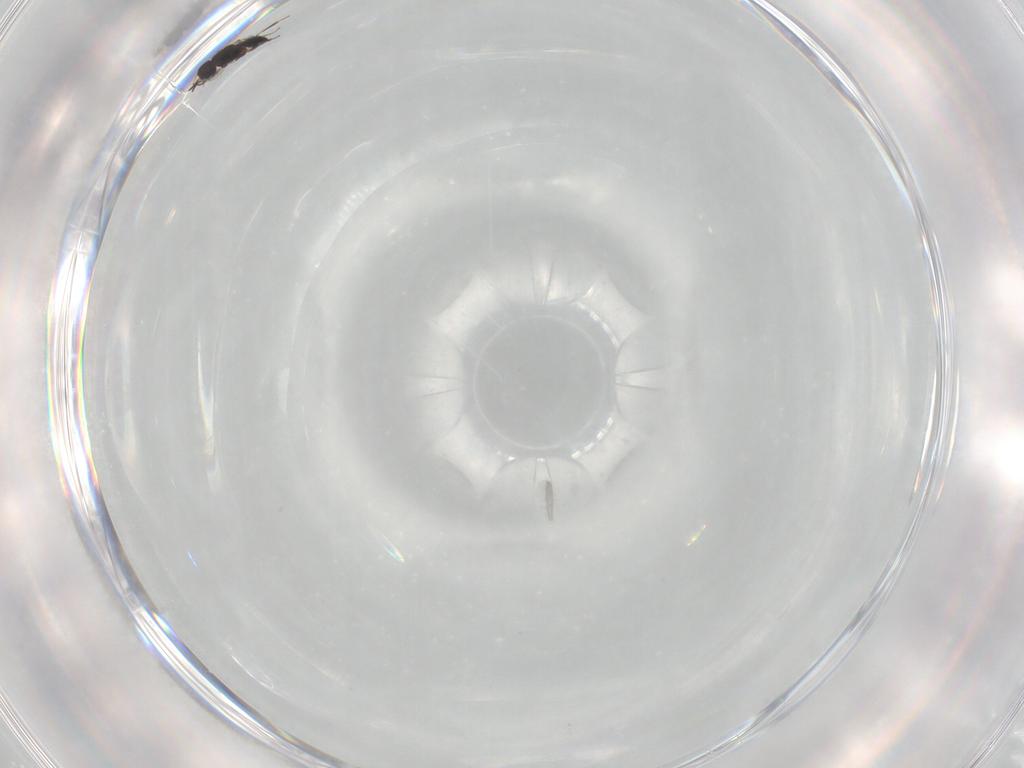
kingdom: Animalia
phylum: Arthropoda
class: Insecta
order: Hymenoptera
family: Scelionidae
